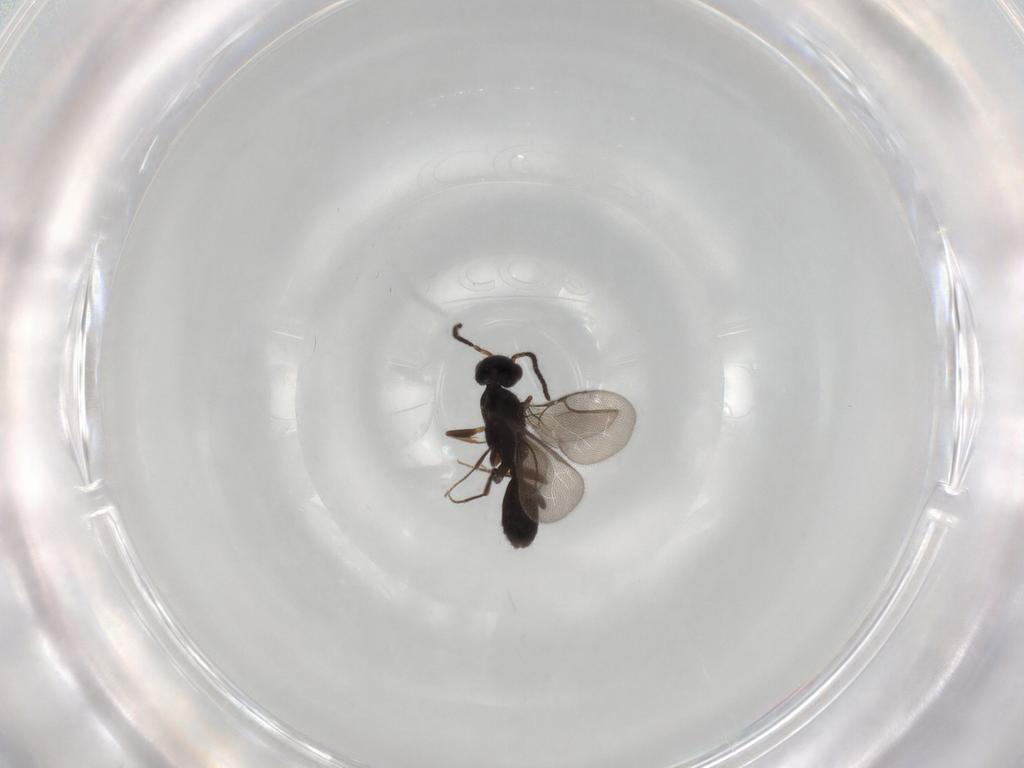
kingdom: Animalia
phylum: Arthropoda
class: Insecta
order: Hymenoptera
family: Bethylidae
